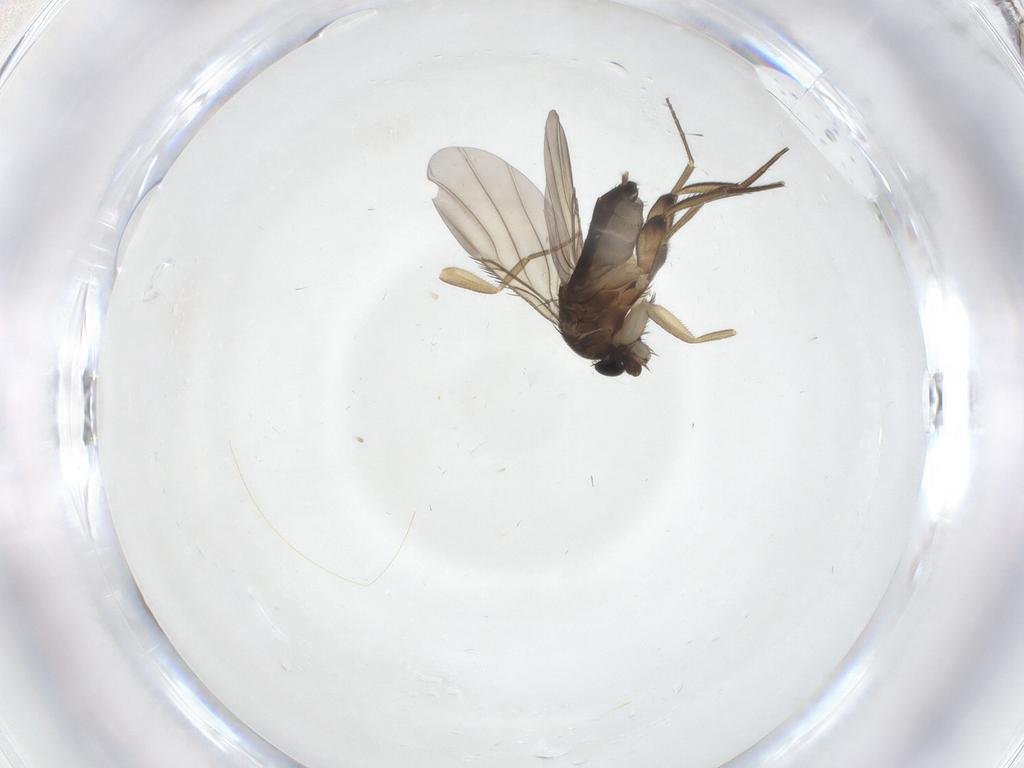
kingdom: Animalia
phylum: Arthropoda
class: Insecta
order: Diptera
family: Phoridae
